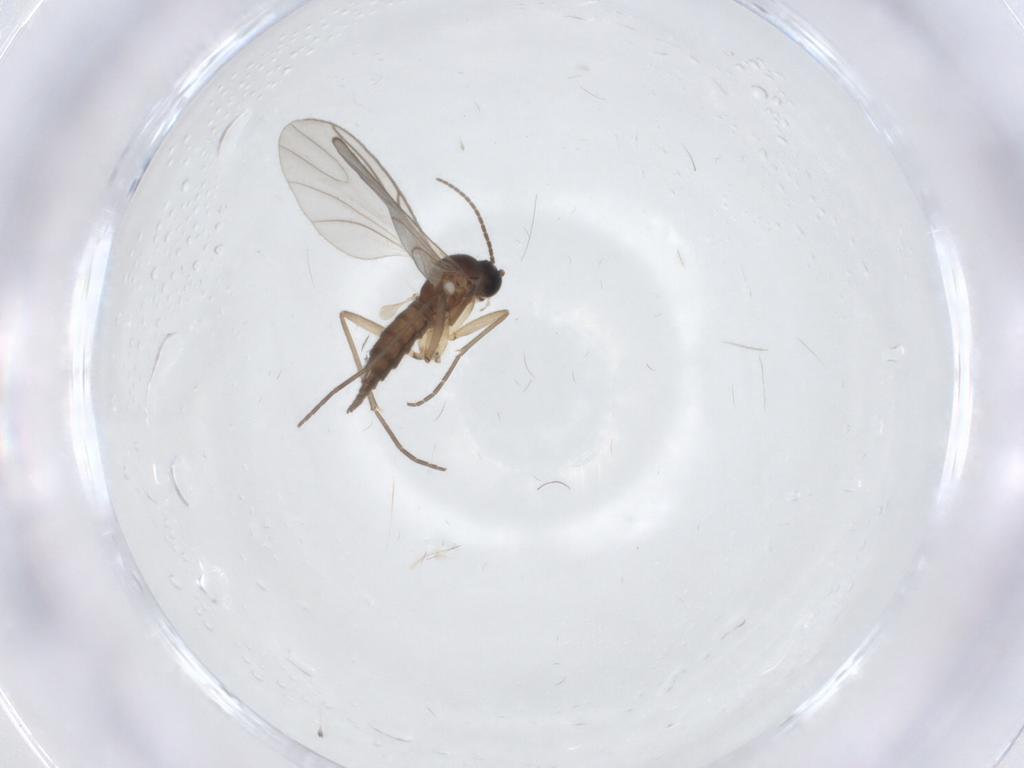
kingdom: Animalia
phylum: Arthropoda
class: Insecta
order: Diptera
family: Sciaridae
